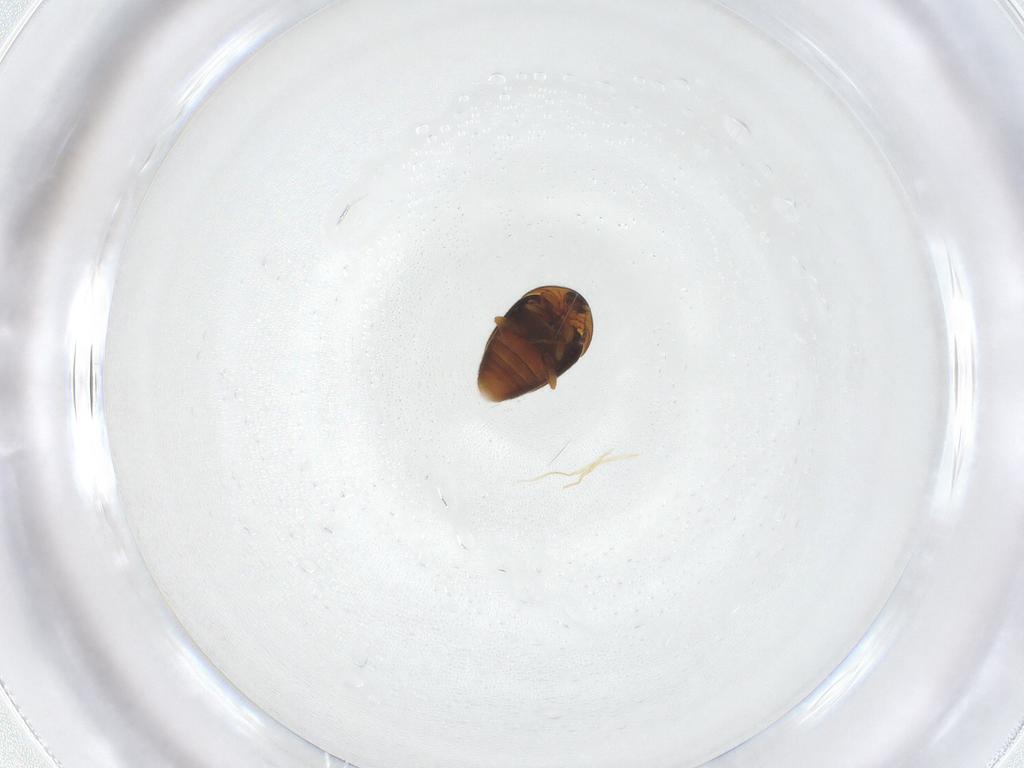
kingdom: Animalia
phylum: Arthropoda
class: Insecta
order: Coleoptera
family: Corylophidae
